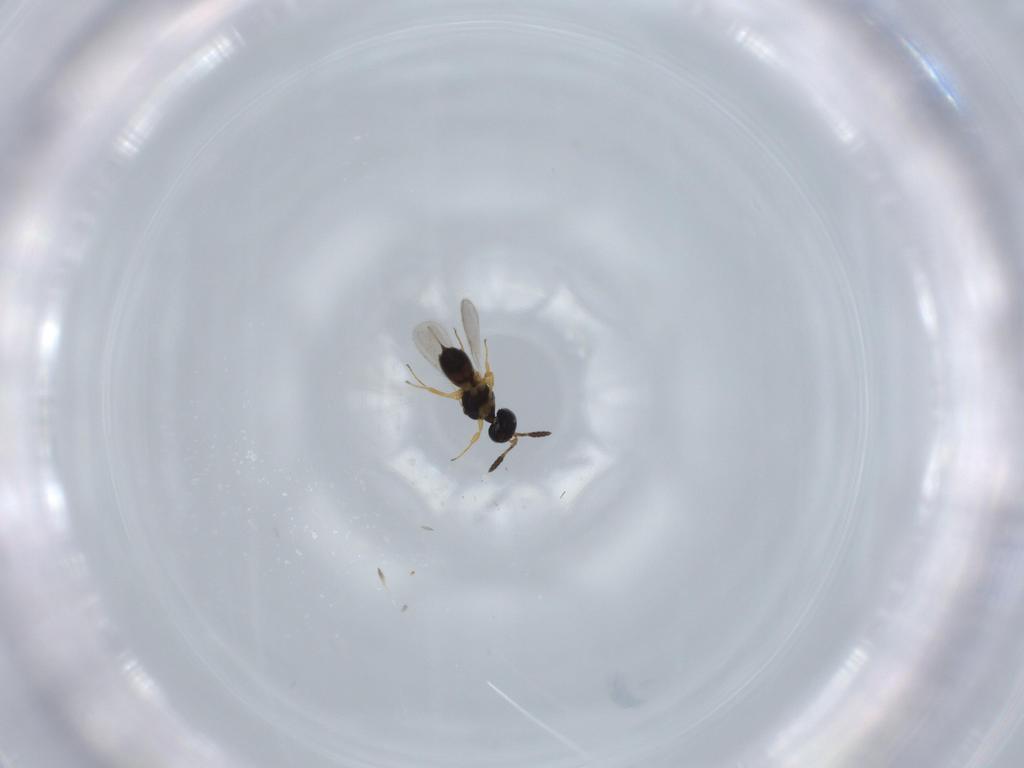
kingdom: Animalia
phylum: Arthropoda
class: Insecta
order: Hymenoptera
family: Scelionidae
